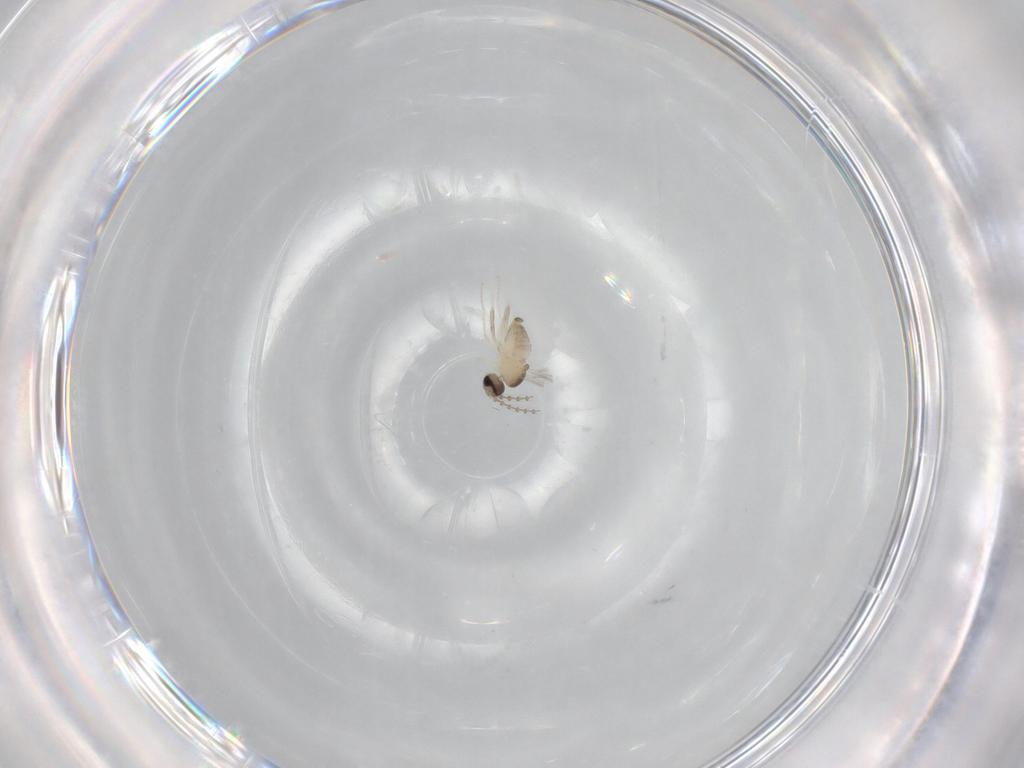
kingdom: Animalia
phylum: Arthropoda
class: Insecta
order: Diptera
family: Cecidomyiidae
